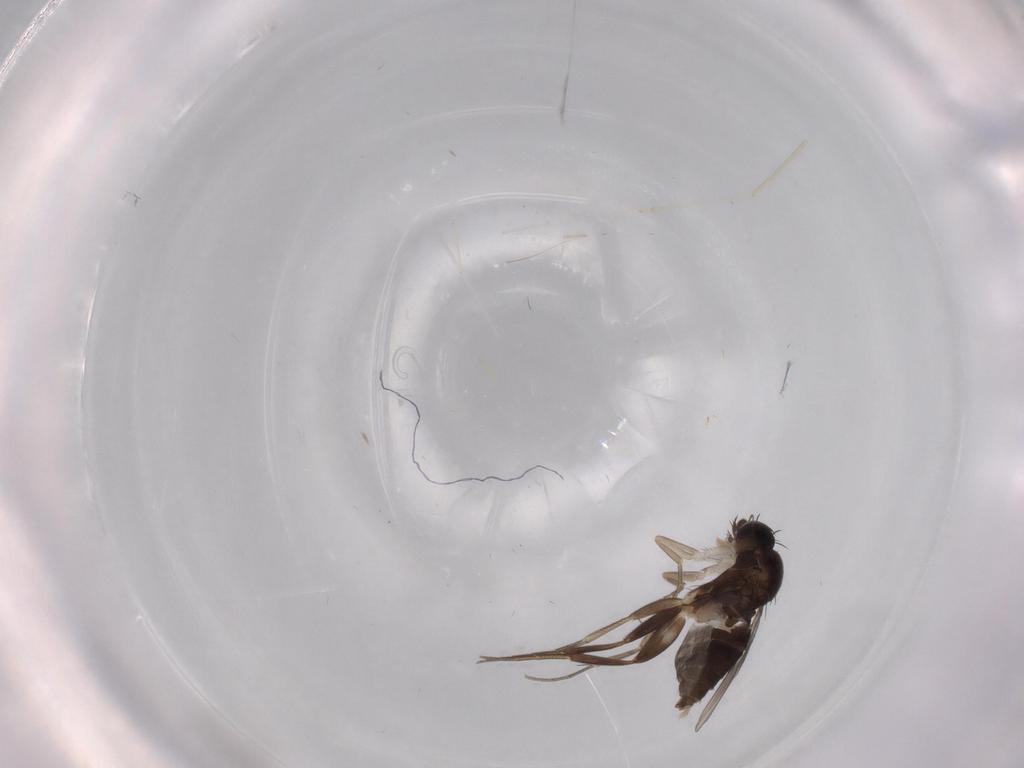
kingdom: Animalia
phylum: Arthropoda
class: Insecta
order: Diptera
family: Phoridae
